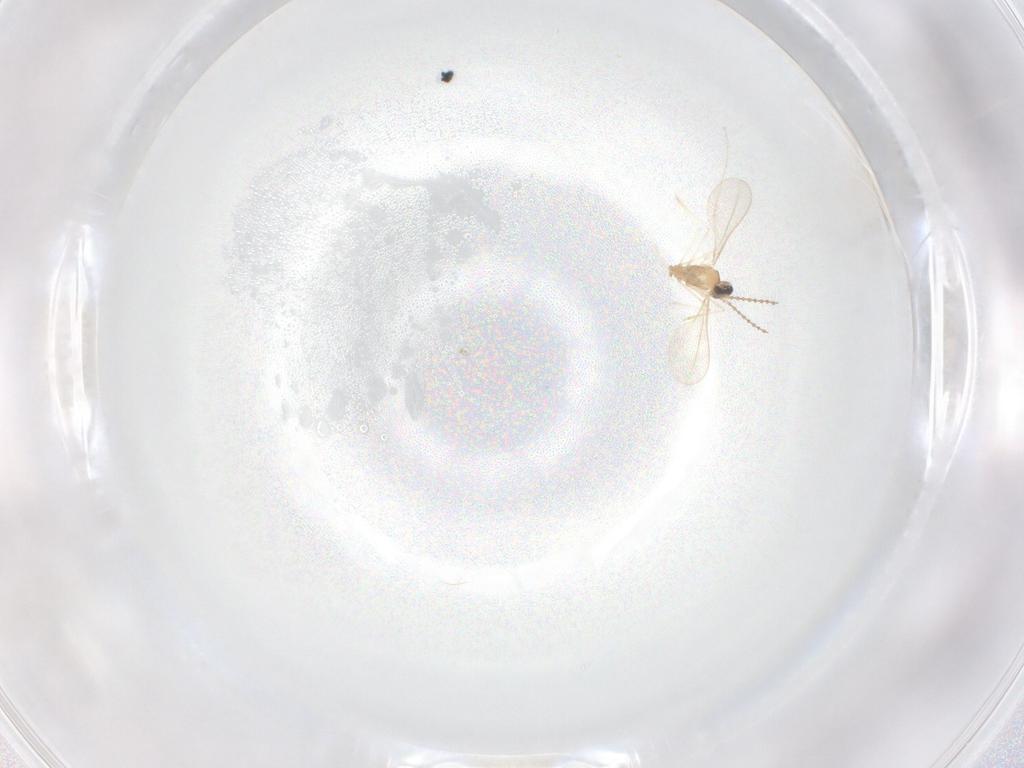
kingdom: Animalia
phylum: Arthropoda
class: Insecta
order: Diptera
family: Cecidomyiidae
